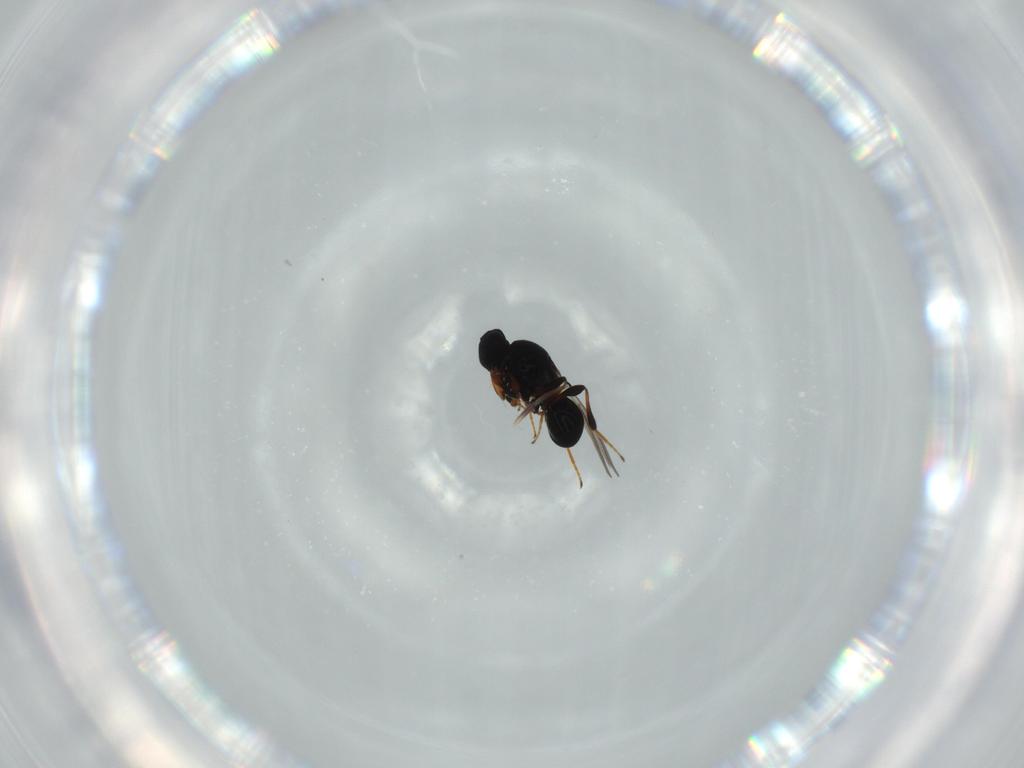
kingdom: Animalia
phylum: Arthropoda
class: Insecta
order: Hymenoptera
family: Platygastridae
